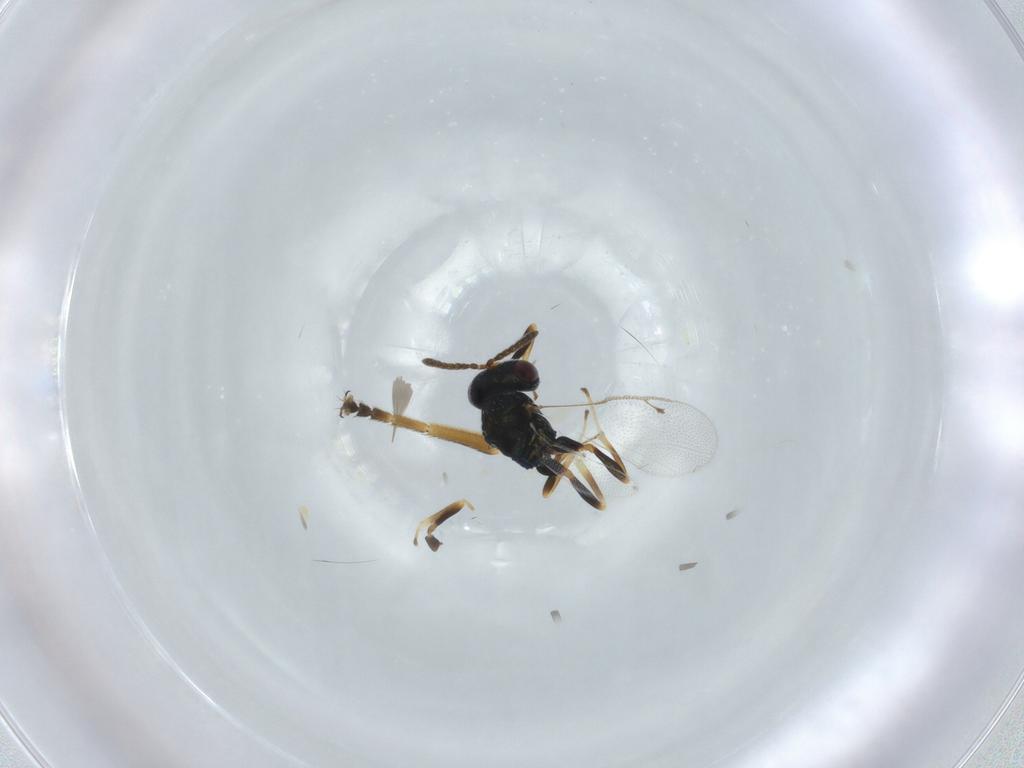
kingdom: Animalia
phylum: Arthropoda
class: Insecta
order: Hymenoptera
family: Pteromalidae
